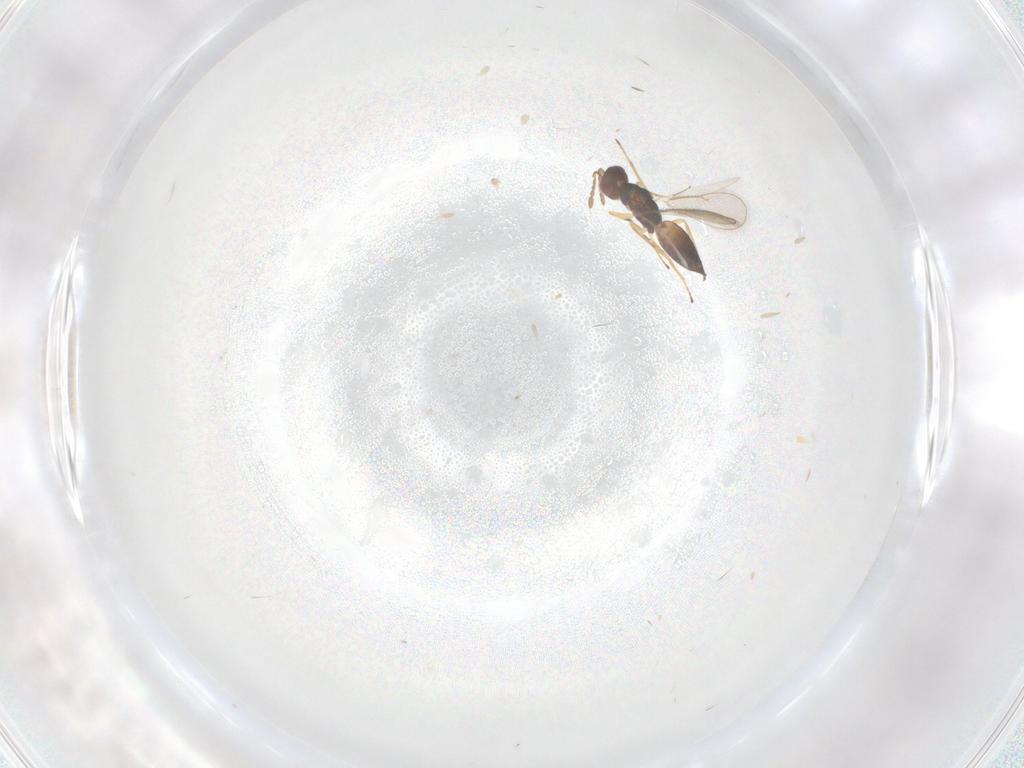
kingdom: Animalia
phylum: Arthropoda
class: Insecta
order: Hymenoptera
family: Eulophidae
